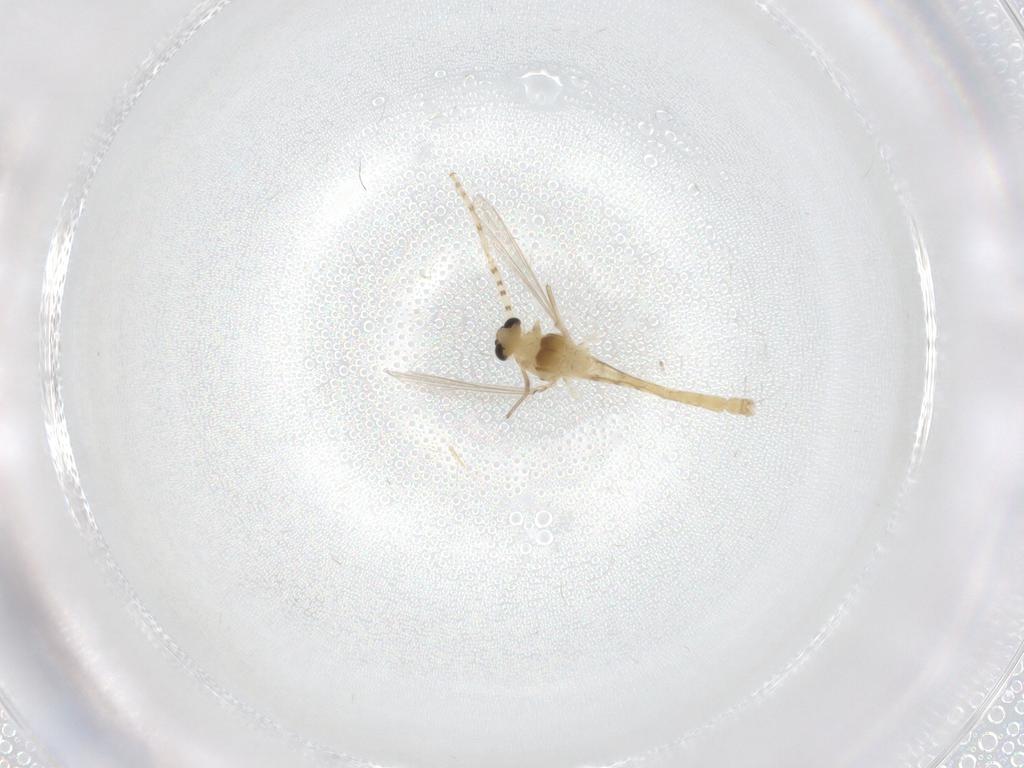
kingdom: Animalia
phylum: Arthropoda
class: Insecta
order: Diptera
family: Chironomidae
